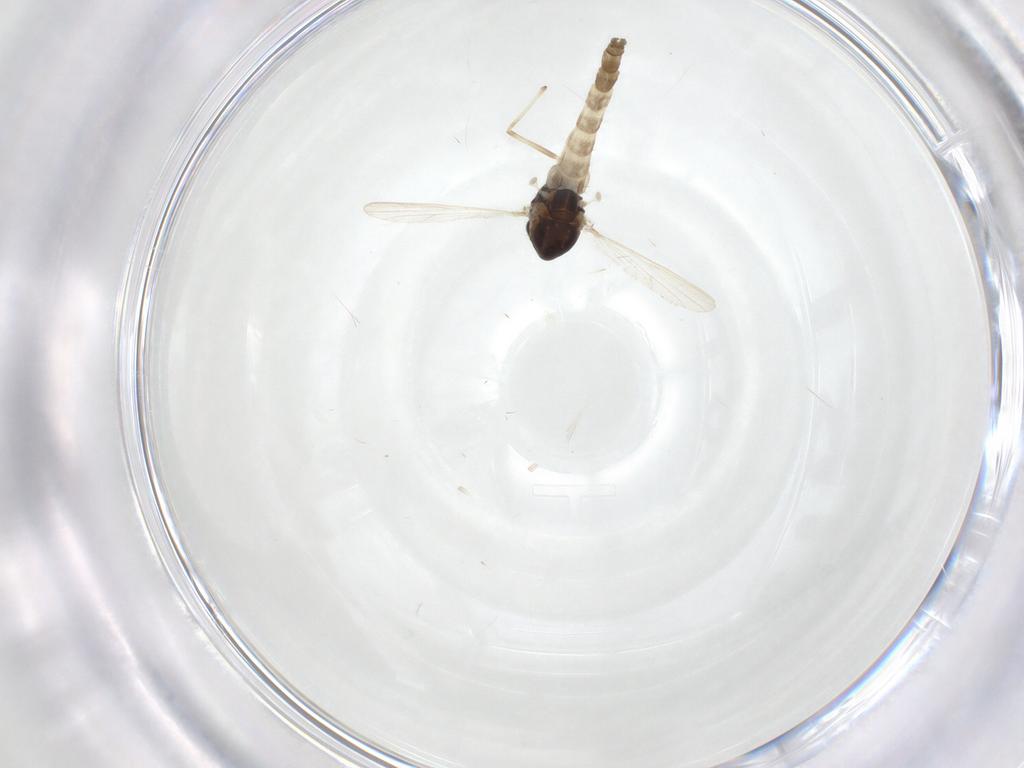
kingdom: Animalia
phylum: Arthropoda
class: Insecta
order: Diptera
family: Chironomidae
